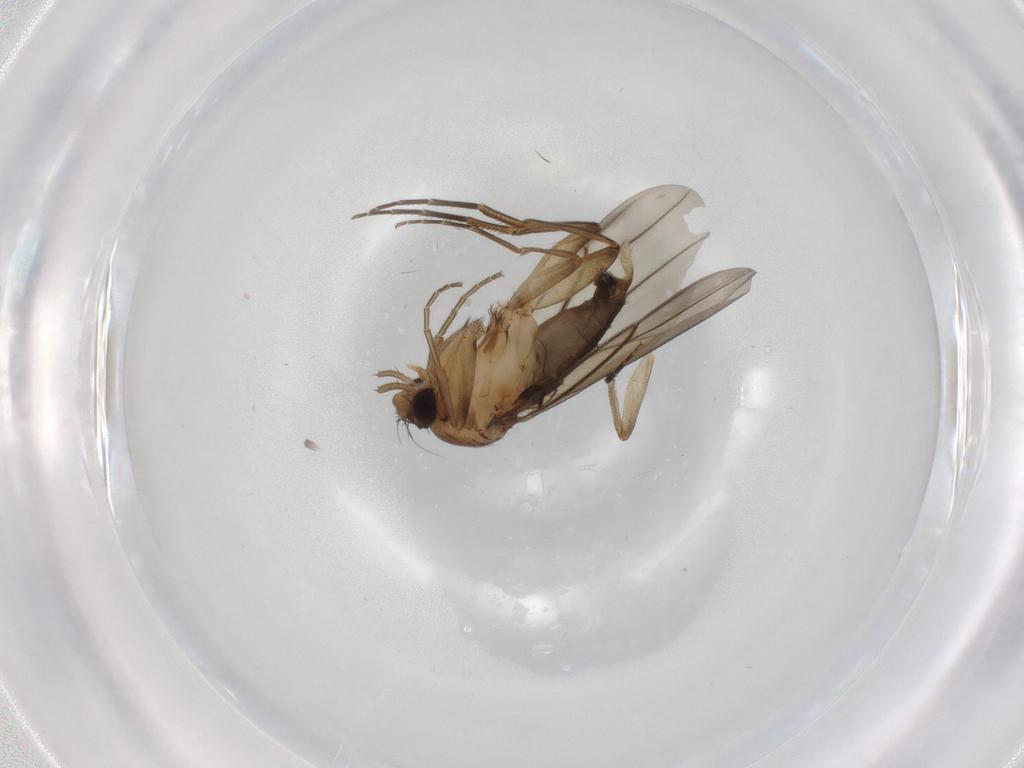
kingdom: Animalia
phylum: Arthropoda
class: Insecta
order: Diptera
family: Phoridae
